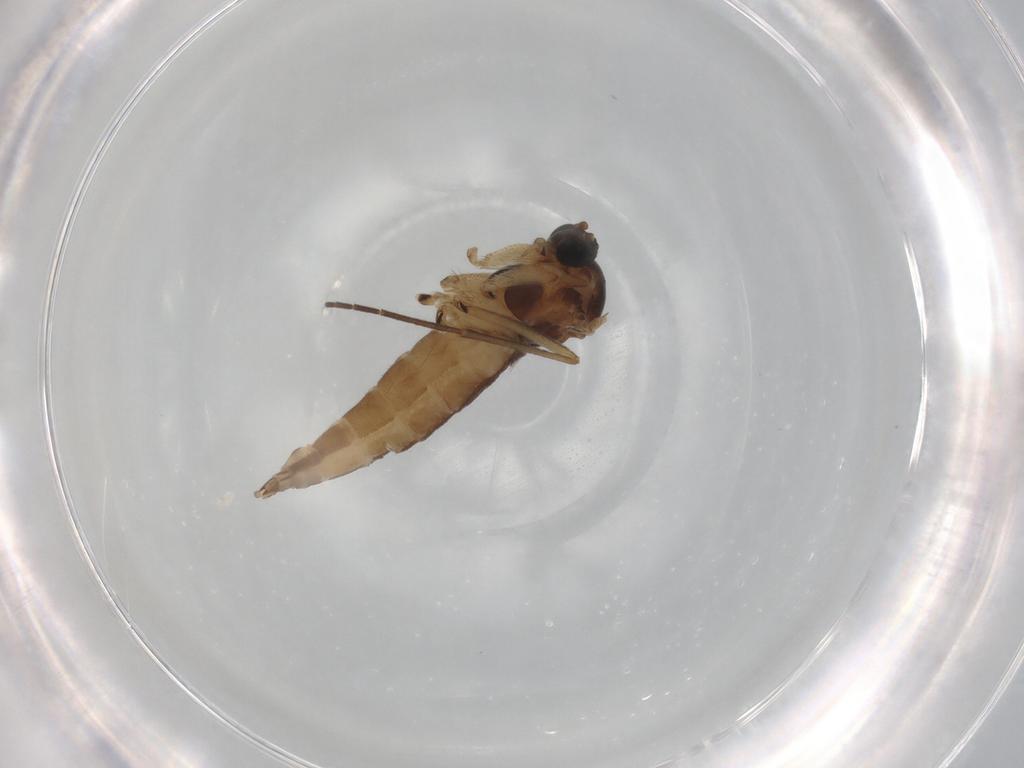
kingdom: Animalia
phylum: Arthropoda
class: Insecta
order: Diptera
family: Sciaridae
